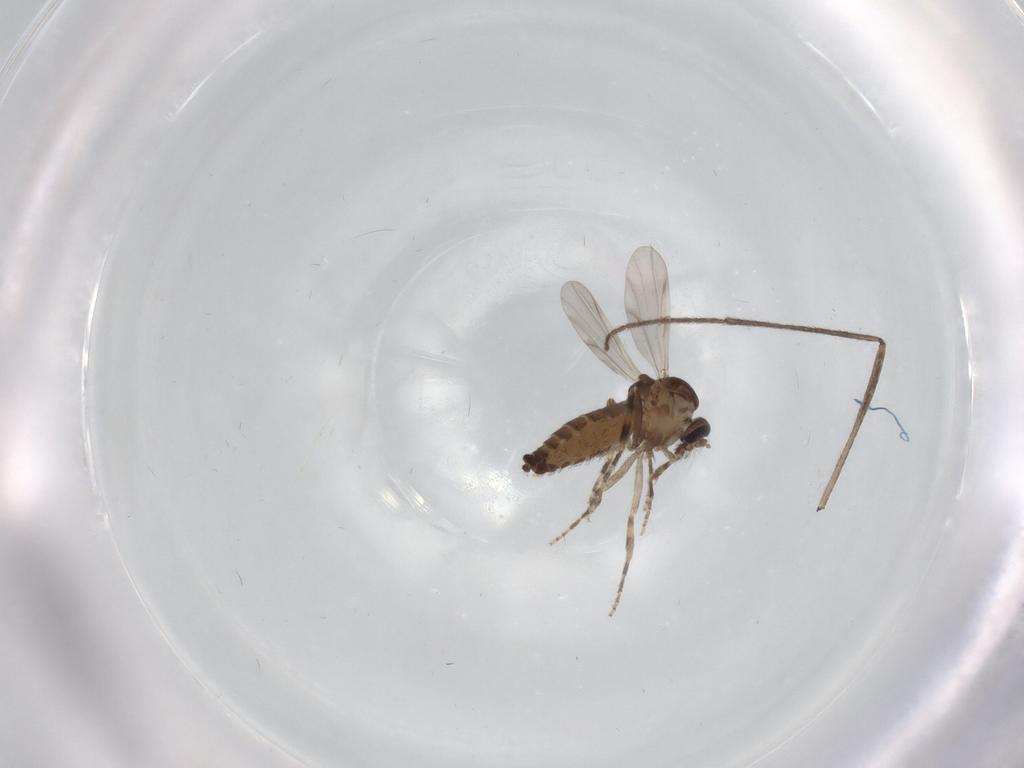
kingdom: Animalia
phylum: Arthropoda
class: Insecta
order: Diptera
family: Ceratopogonidae
